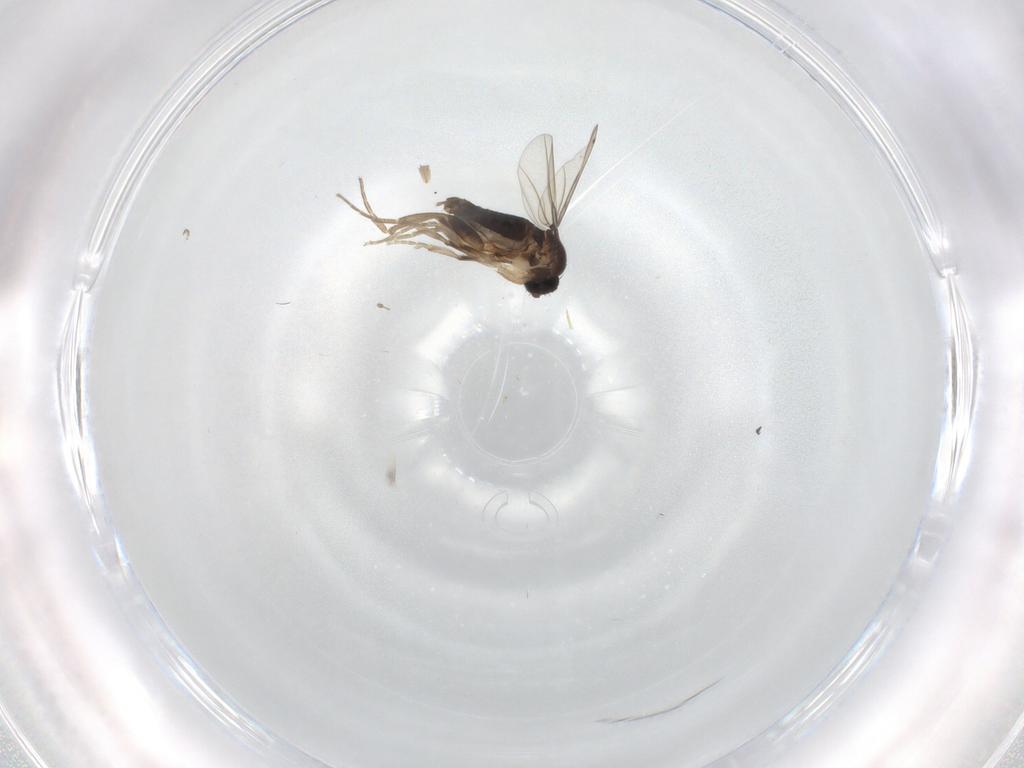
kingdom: Animalia
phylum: Arthropoda
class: Insecta
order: Diptera
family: Phoridae
